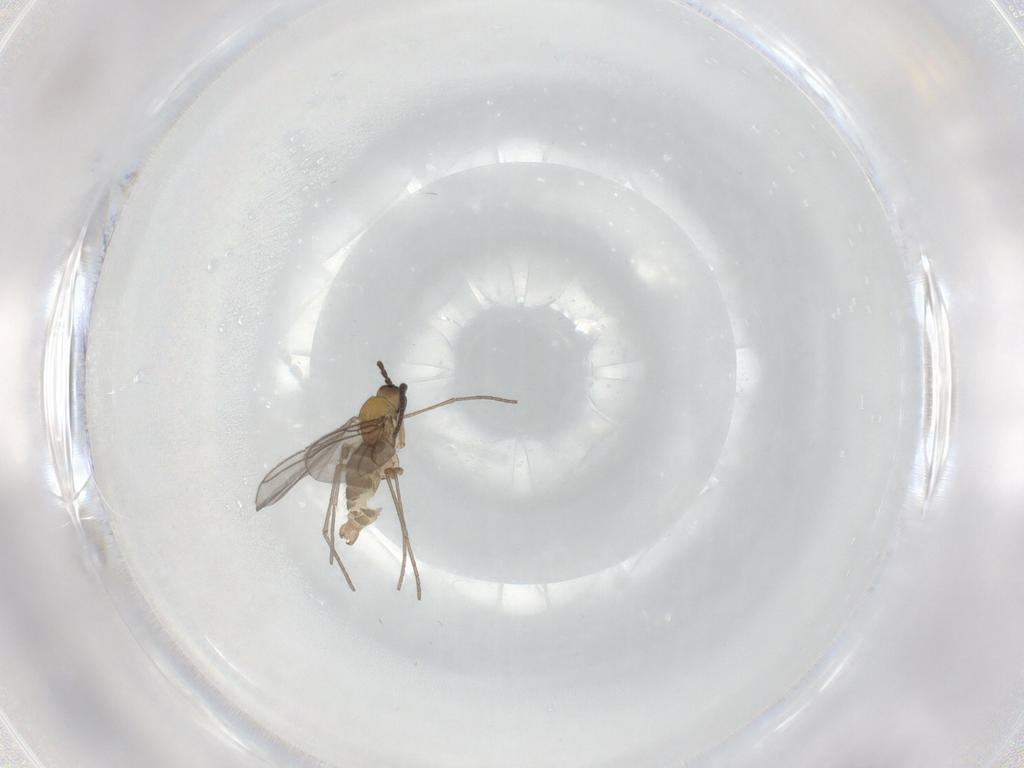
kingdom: Animalia
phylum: Arthropoda
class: Insecta
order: Diptera
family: Sciaridae
